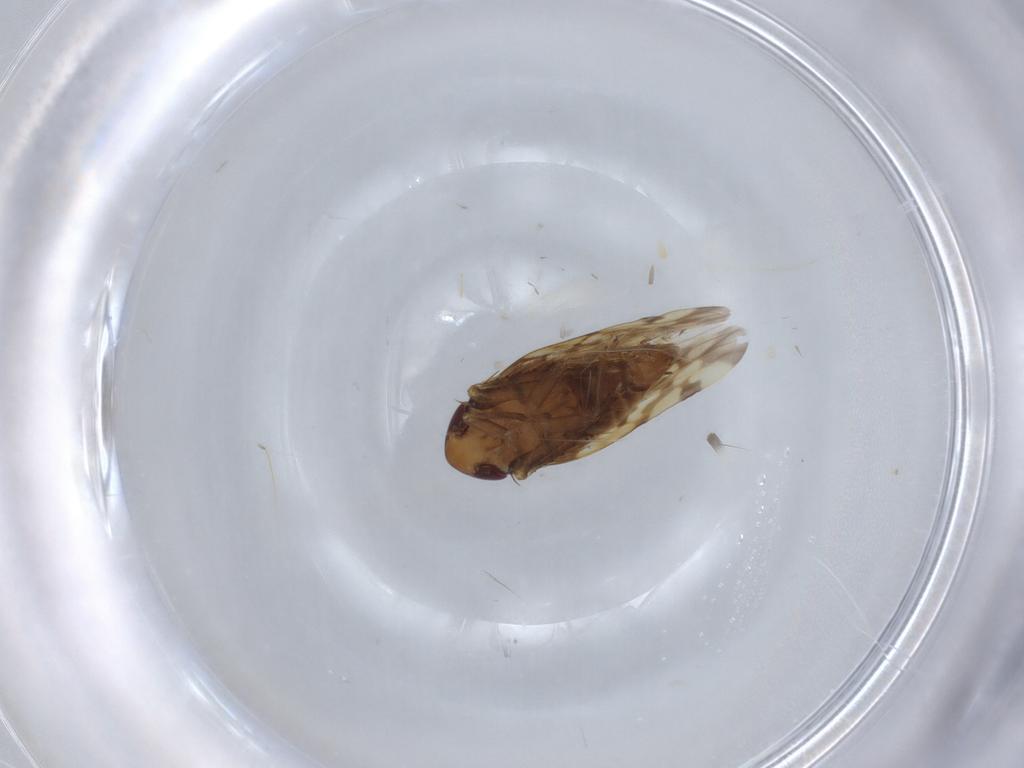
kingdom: Animalia
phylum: Arthropoda
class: Insecta
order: Hemiptera
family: Cicadellidae
